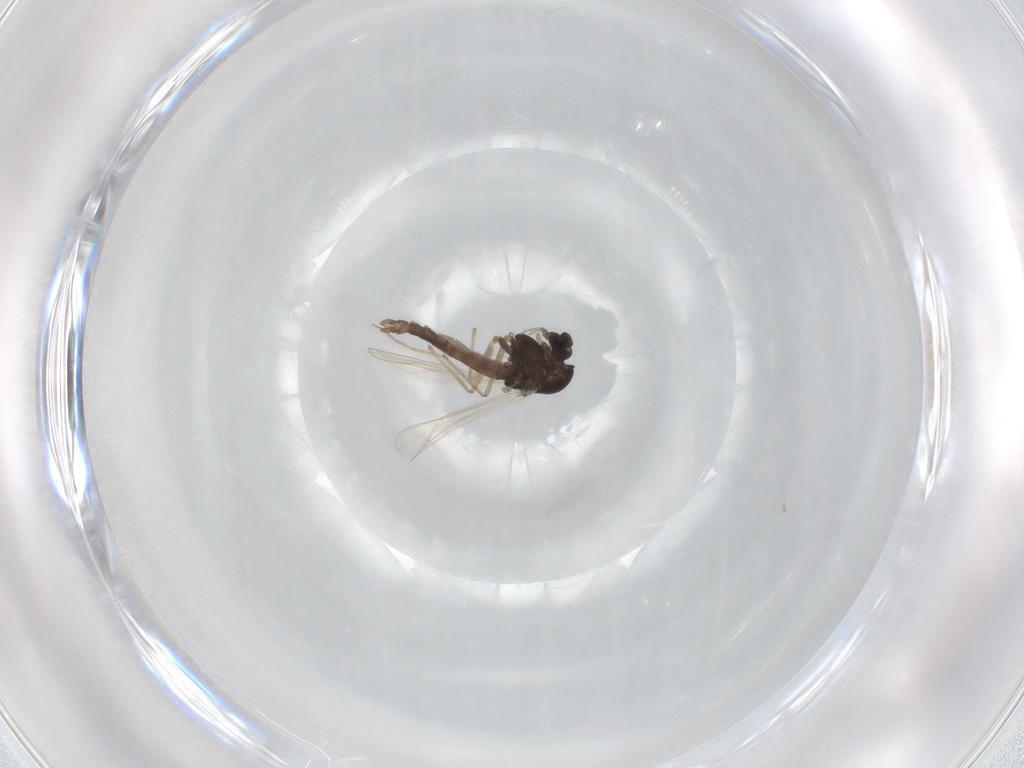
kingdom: Animalia
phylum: Arthropoda
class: Insecta
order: Diptera
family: Chironomidae
